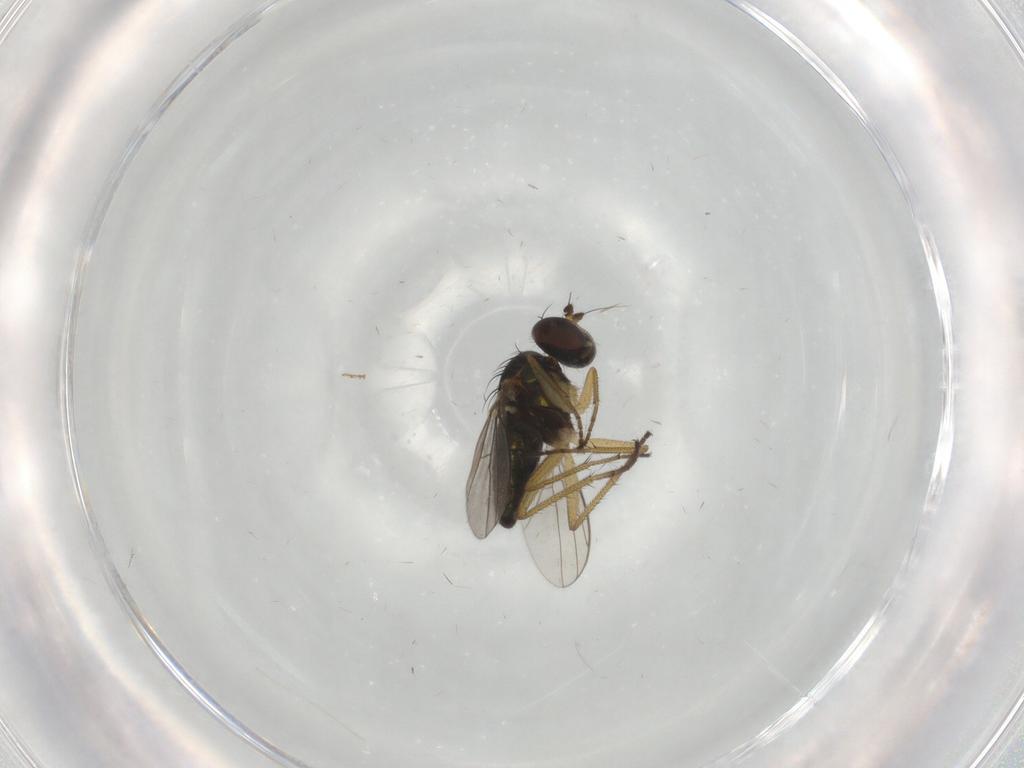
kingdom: Animalia
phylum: Arthropoda
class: Insecta
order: Diptera
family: Dolichopodidae
